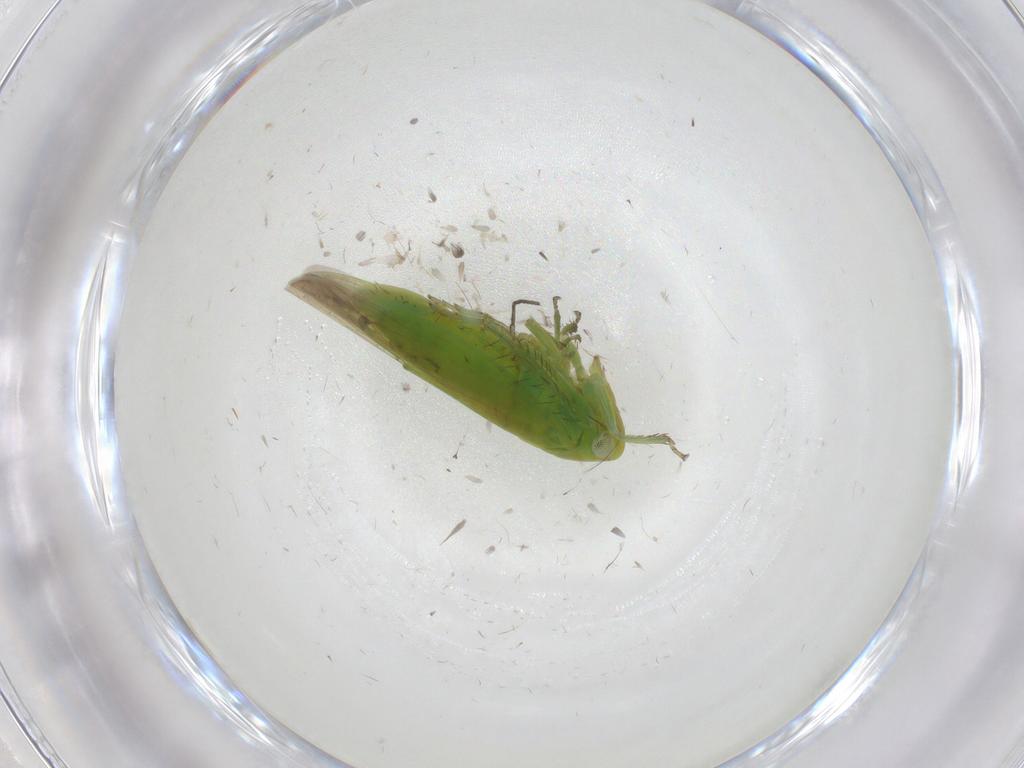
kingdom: Animalia
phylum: Arthropoda
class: Insecta
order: Hemiptera
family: Cicadellidae
